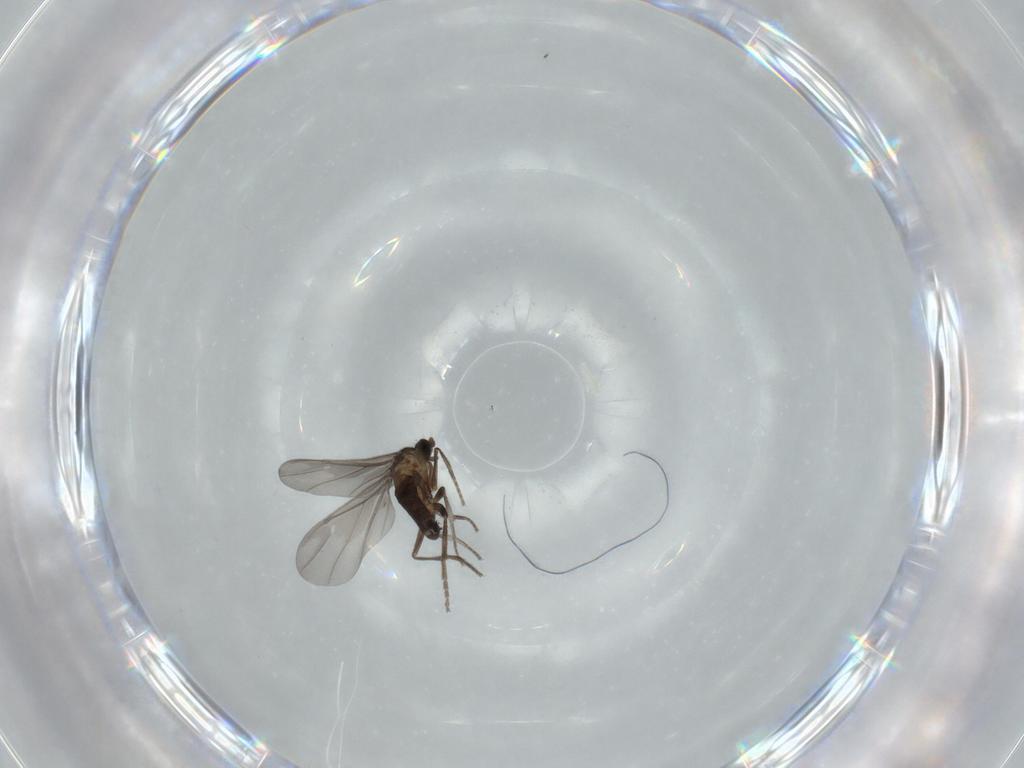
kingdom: Animalia
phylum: Arthropoda
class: Insecta
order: Diptera
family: Phoridae
